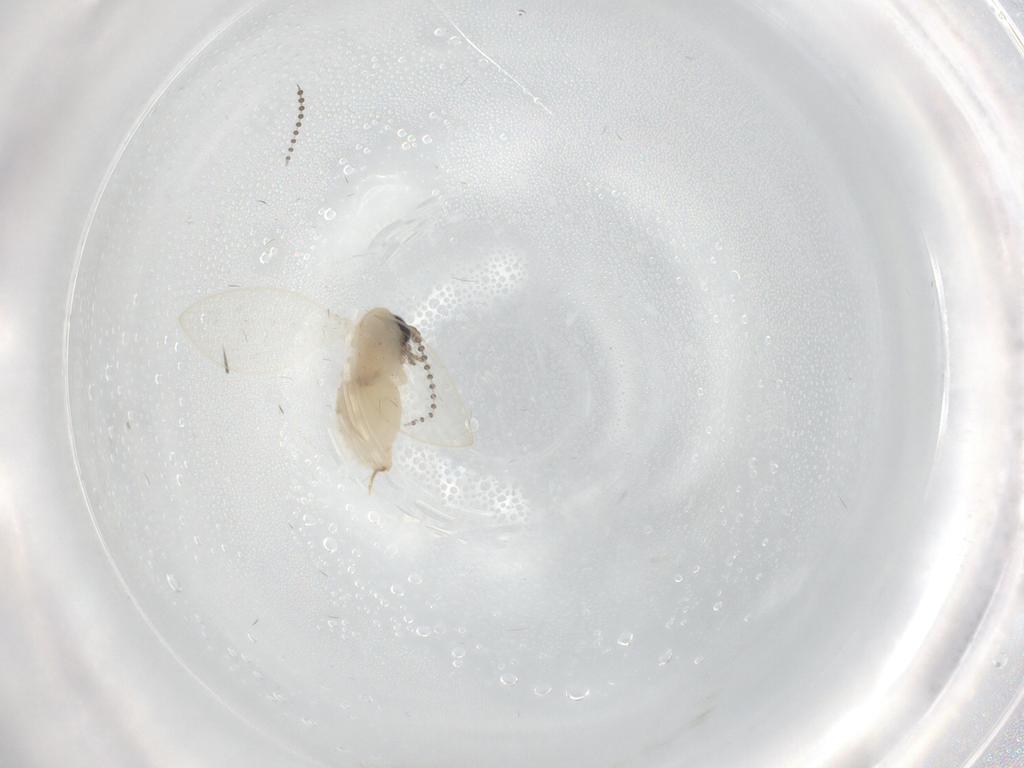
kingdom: Animalia
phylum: Arthropoda
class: Insecta
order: Diptera
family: Psychodidae
